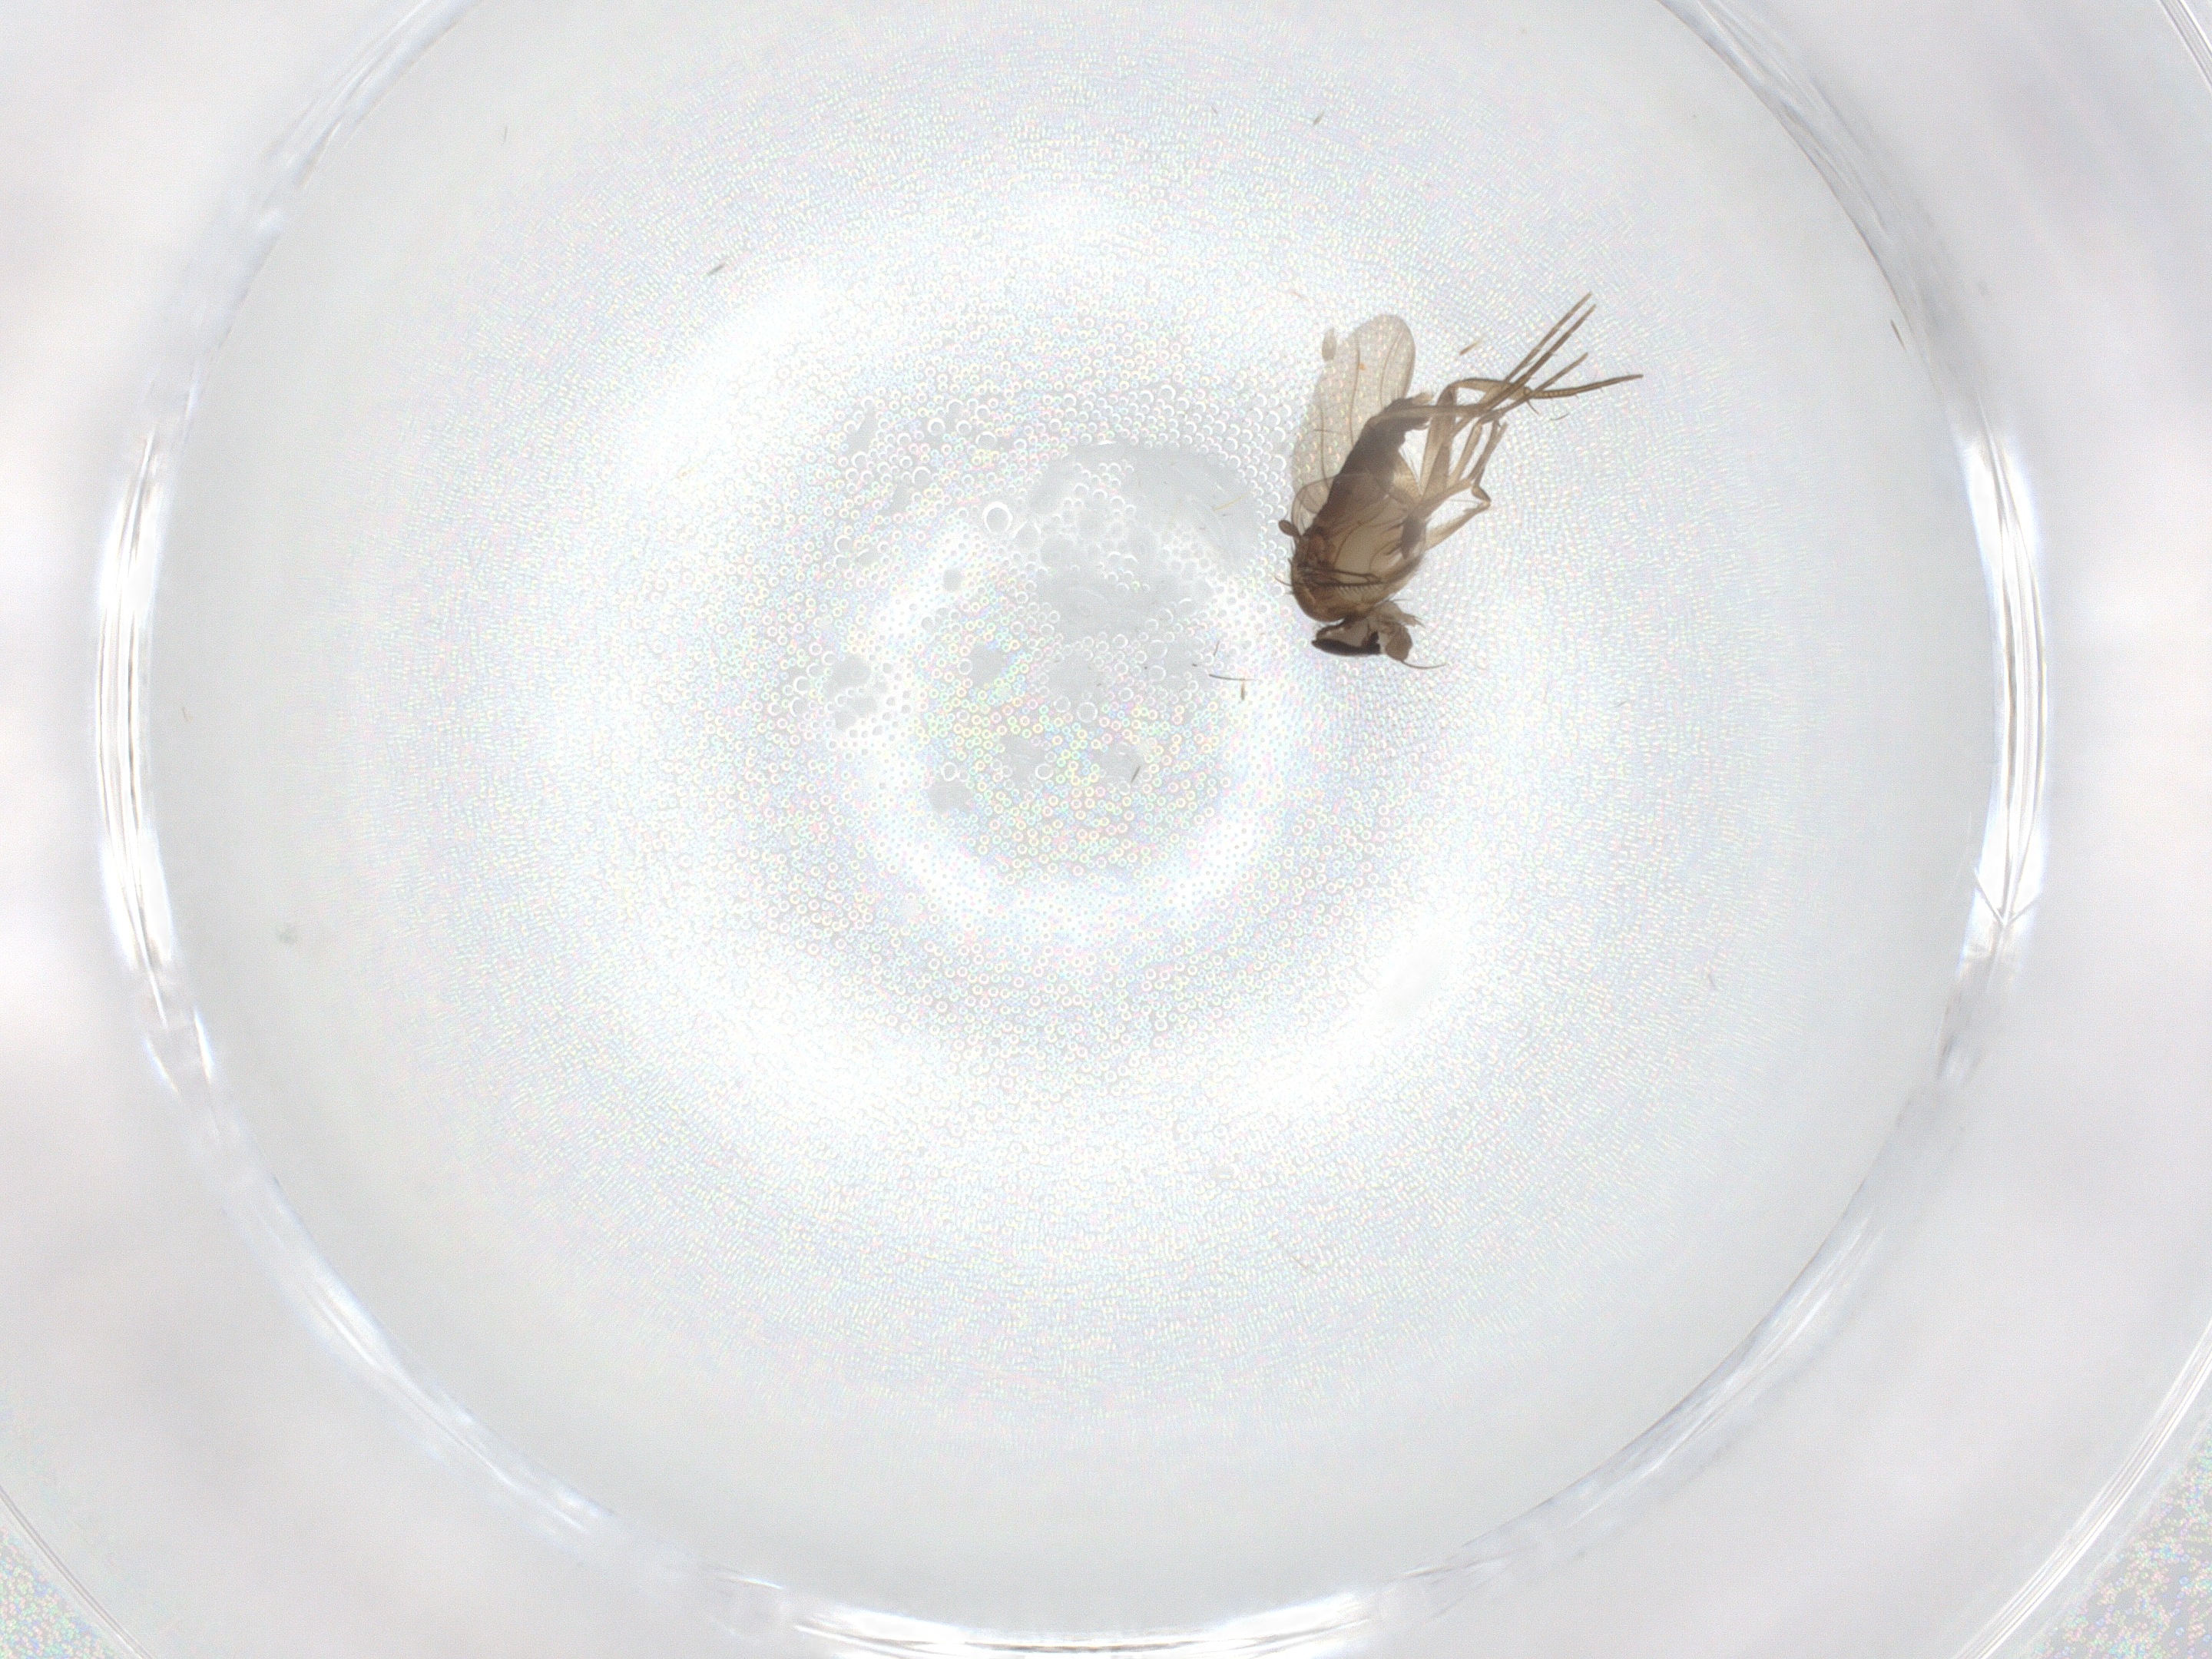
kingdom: Animalia
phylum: Arthropoda
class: Insecta
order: Diptera
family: Phoridae
